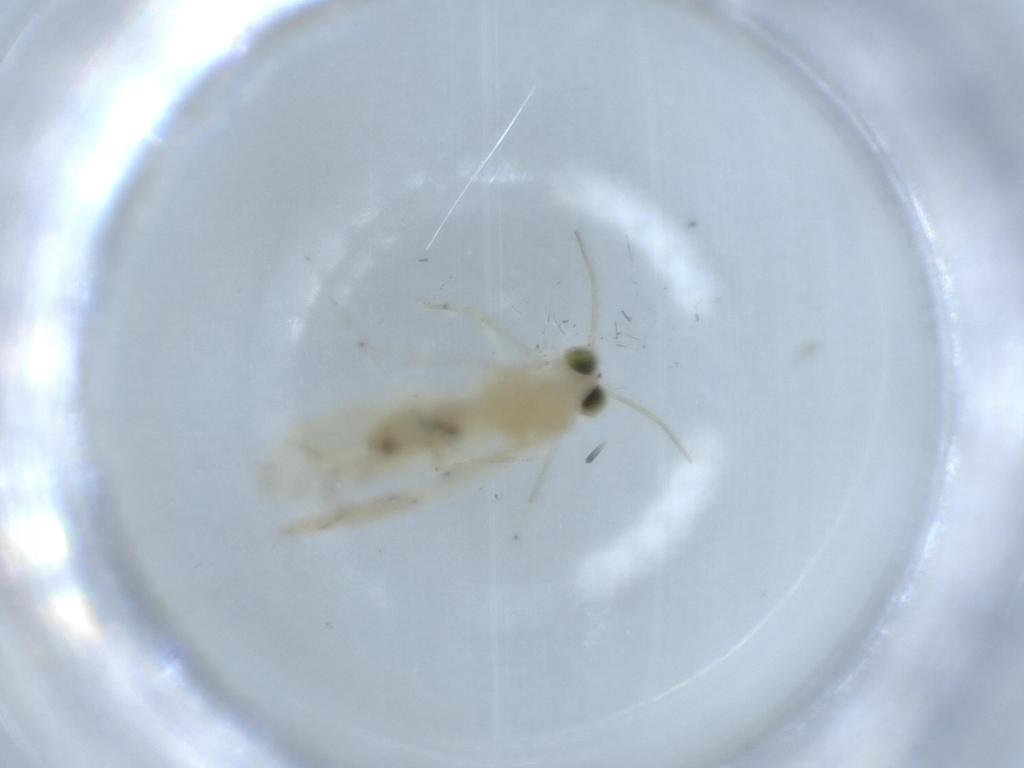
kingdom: Animalia
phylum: Arthropoda
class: Insecta
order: Psocodea
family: Caeciliusidae
